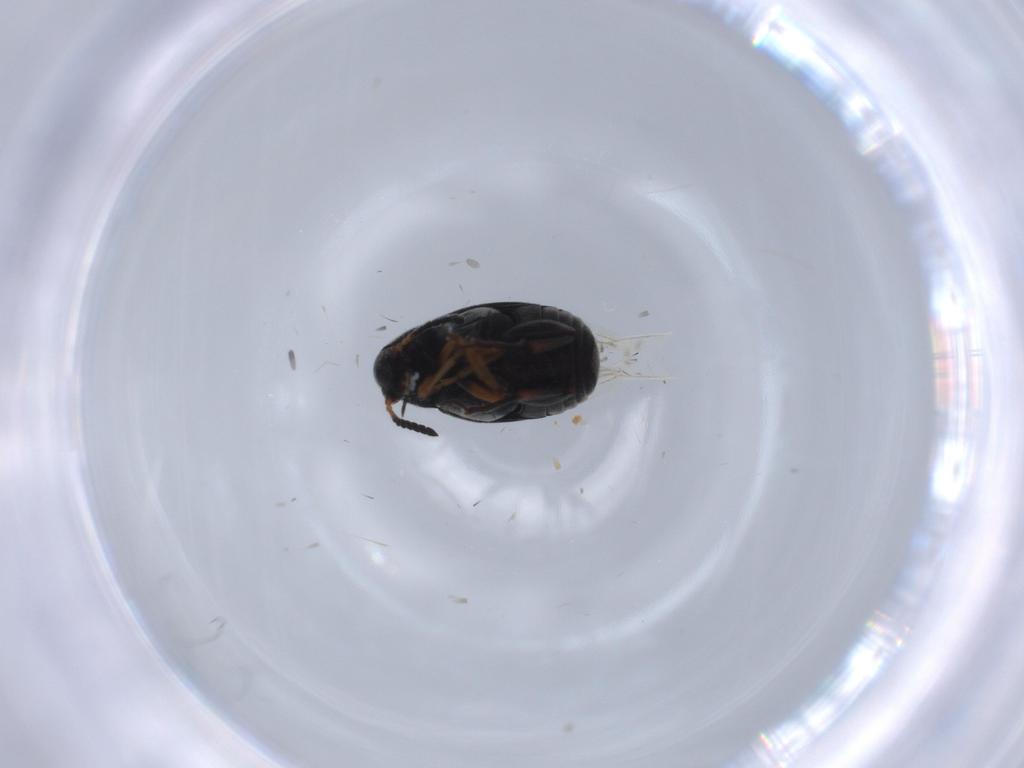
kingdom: Animalia
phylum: Arthropoda
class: Insecta
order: Coleoptera
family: Chrysomelidae
